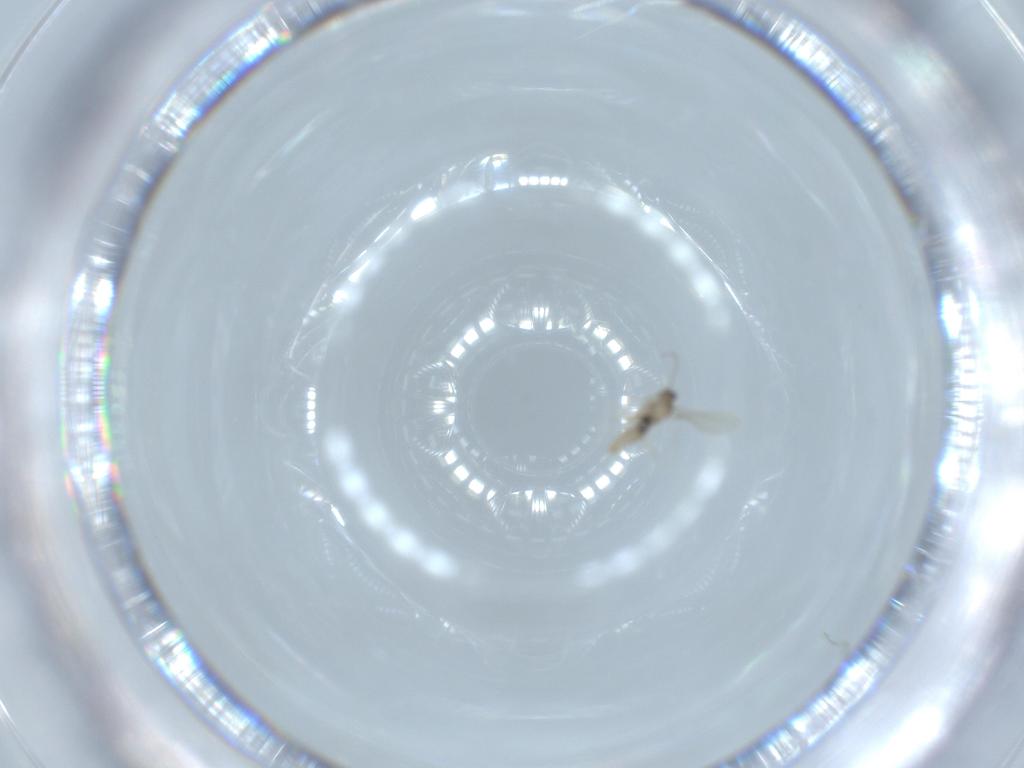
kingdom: Animalia
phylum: Arthropoda
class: Insecta
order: Diptera
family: Cecidomyiidae
